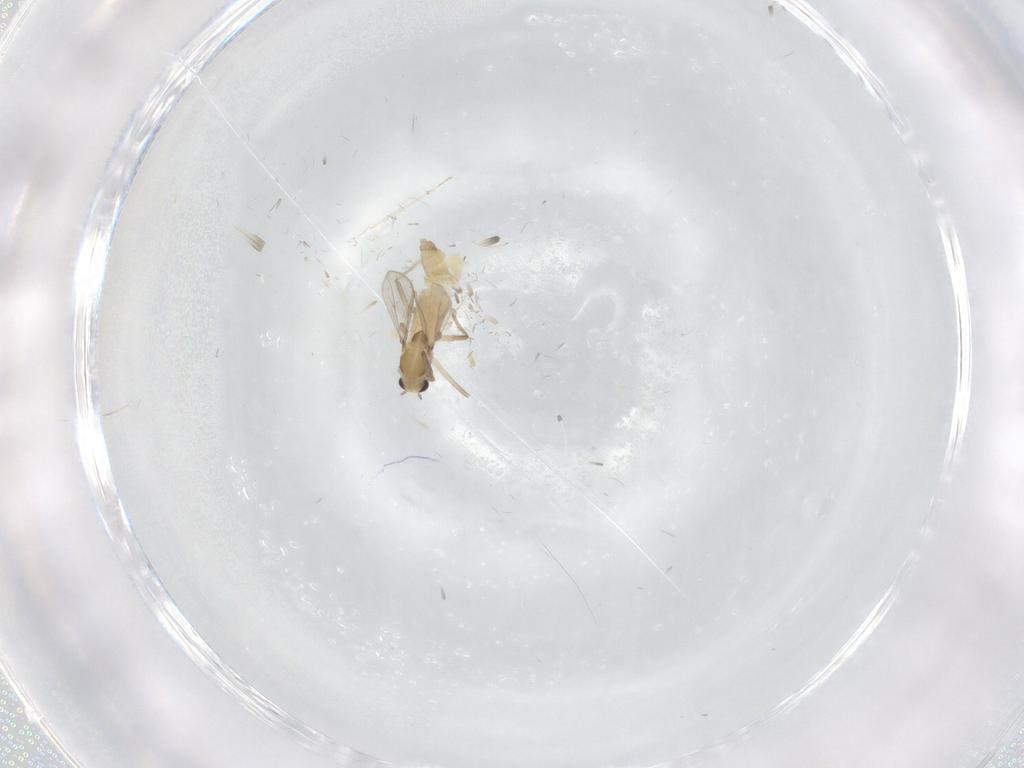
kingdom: Animalia
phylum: Arthropoda
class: Insecta
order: Diptera
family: Chironomidae
